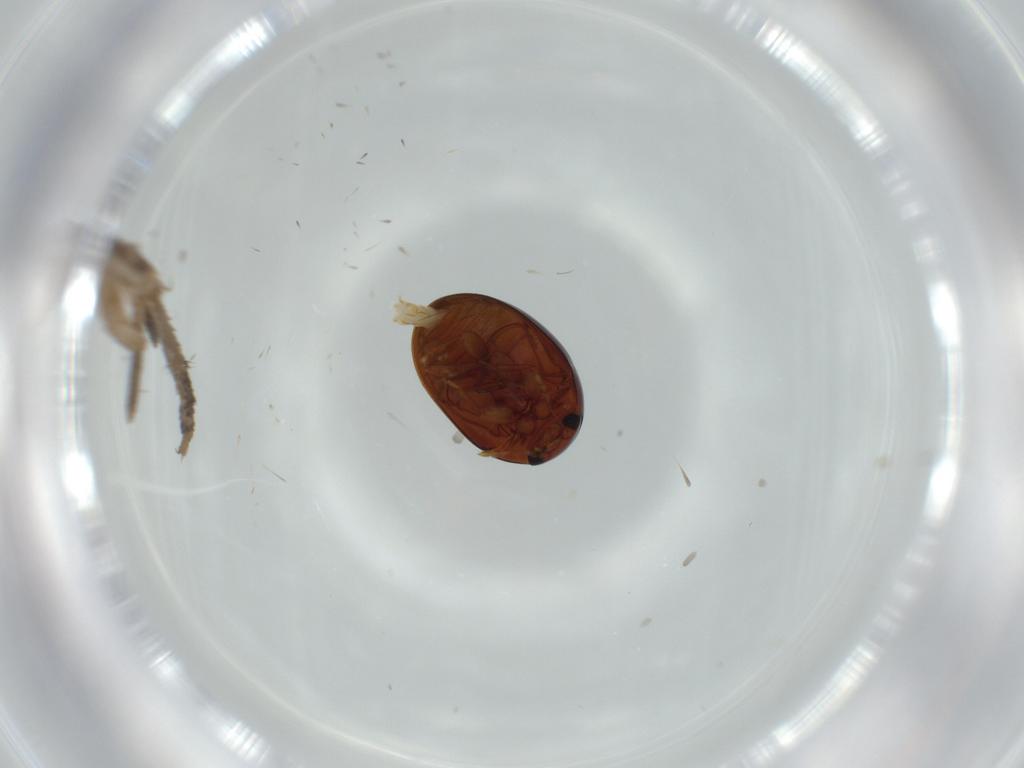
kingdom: Animalia
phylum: Arthropoda
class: Insecta
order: Coleoptera
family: Phalacridae
